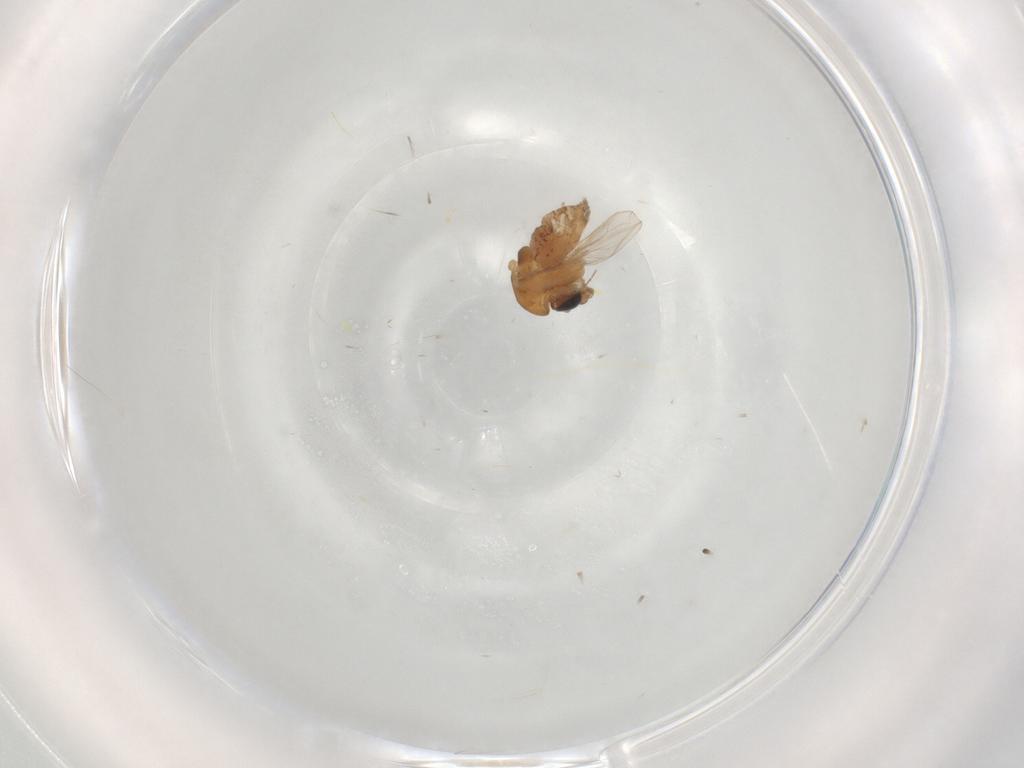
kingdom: Animalia
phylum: Arthropoda
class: Insecta
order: Diptera
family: Chironomidae
